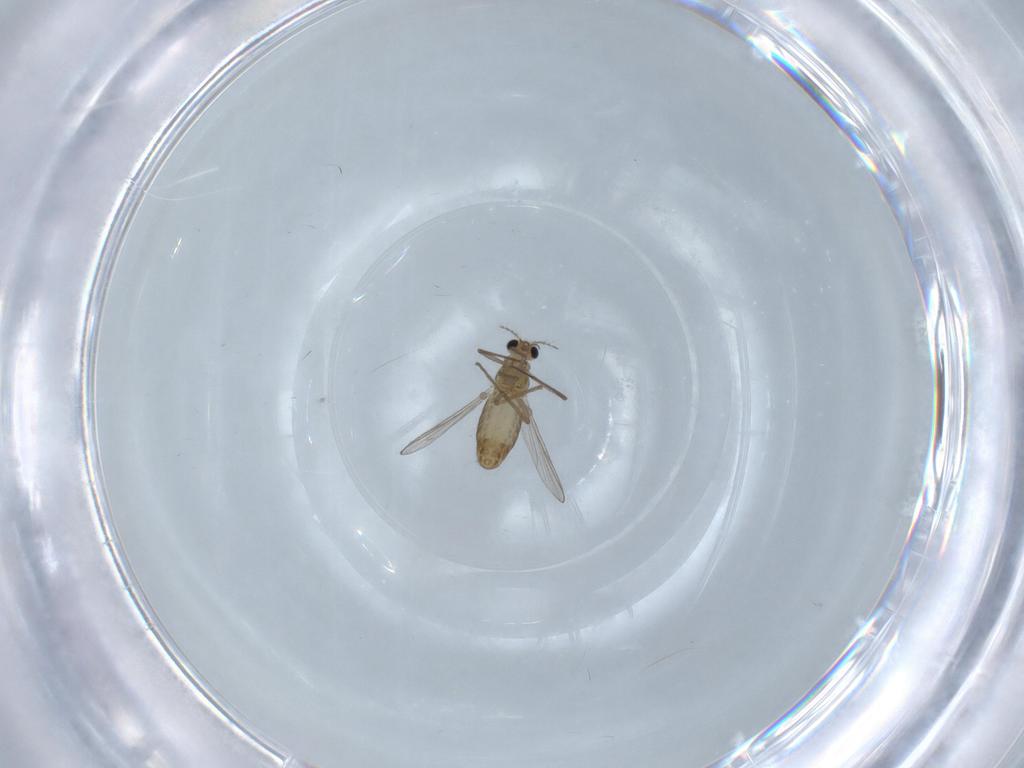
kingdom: Animalia
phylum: Arthropoda
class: Insecta
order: Diptera
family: Chironomidae
